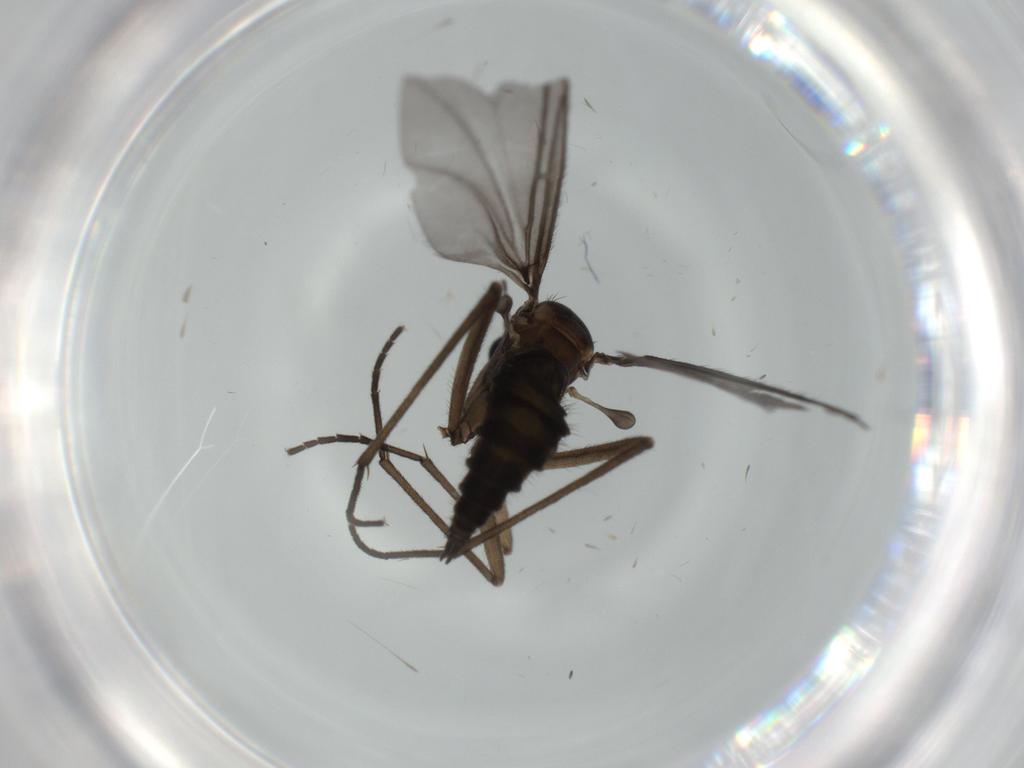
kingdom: Animalia
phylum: Arthropoda
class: Insecta
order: Diptera
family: Sciaridae
